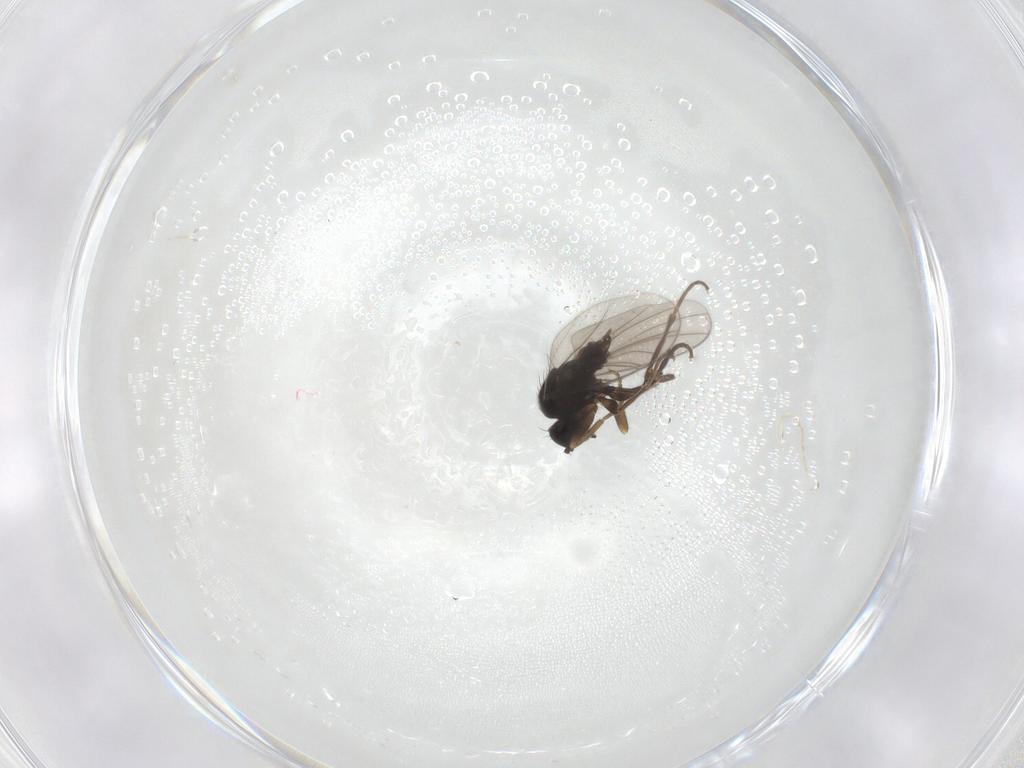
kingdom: Animalia
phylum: Arthropoda
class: Insecta
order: Diptera
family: Hybotidae
